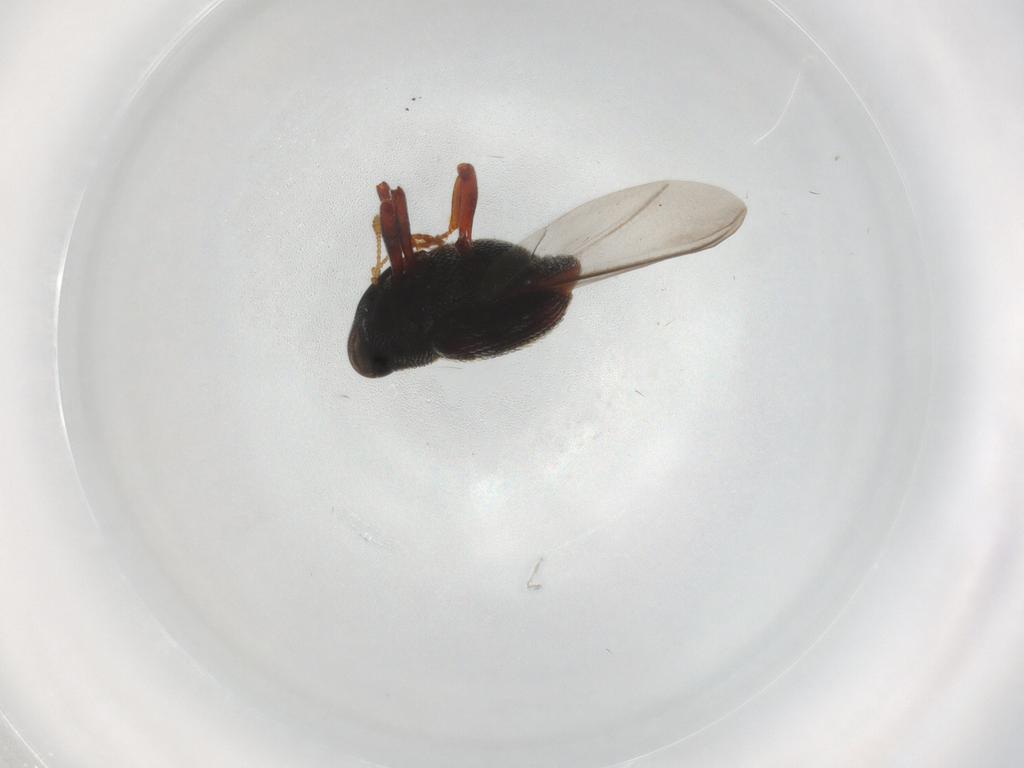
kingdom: Animalia
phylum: Arthropoda
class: Insecta
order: Coleoptera
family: Curculionidae
